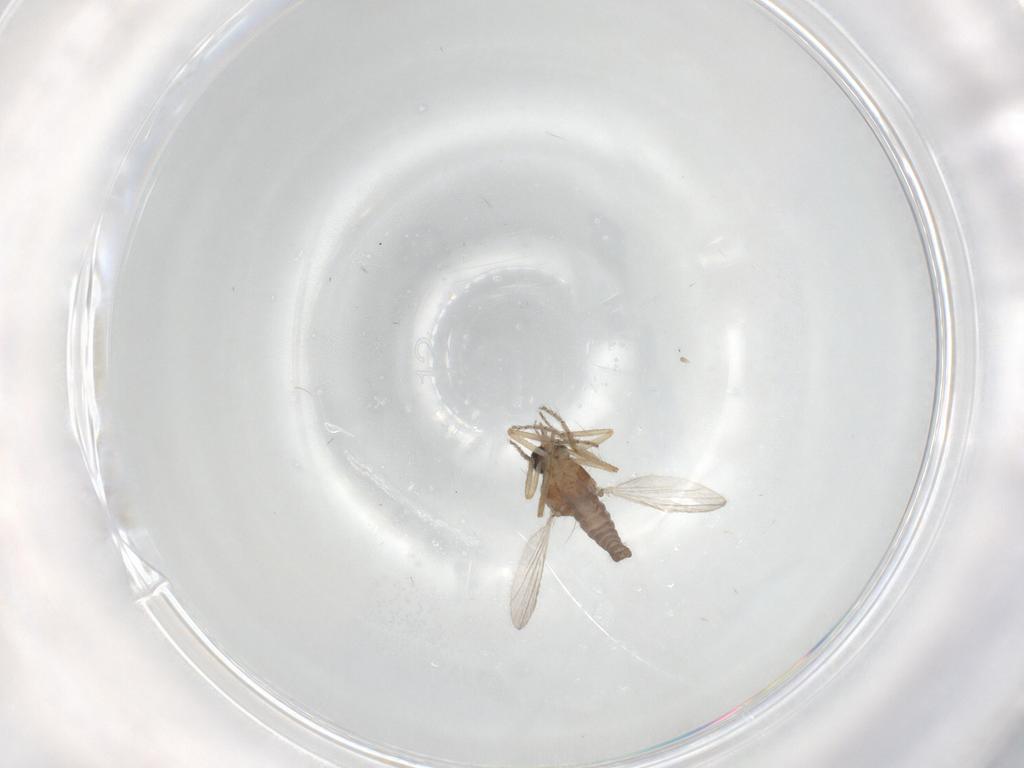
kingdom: Animalia
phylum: Arthropoda
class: Insecta
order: Diptera
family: Ceratopogonidae
